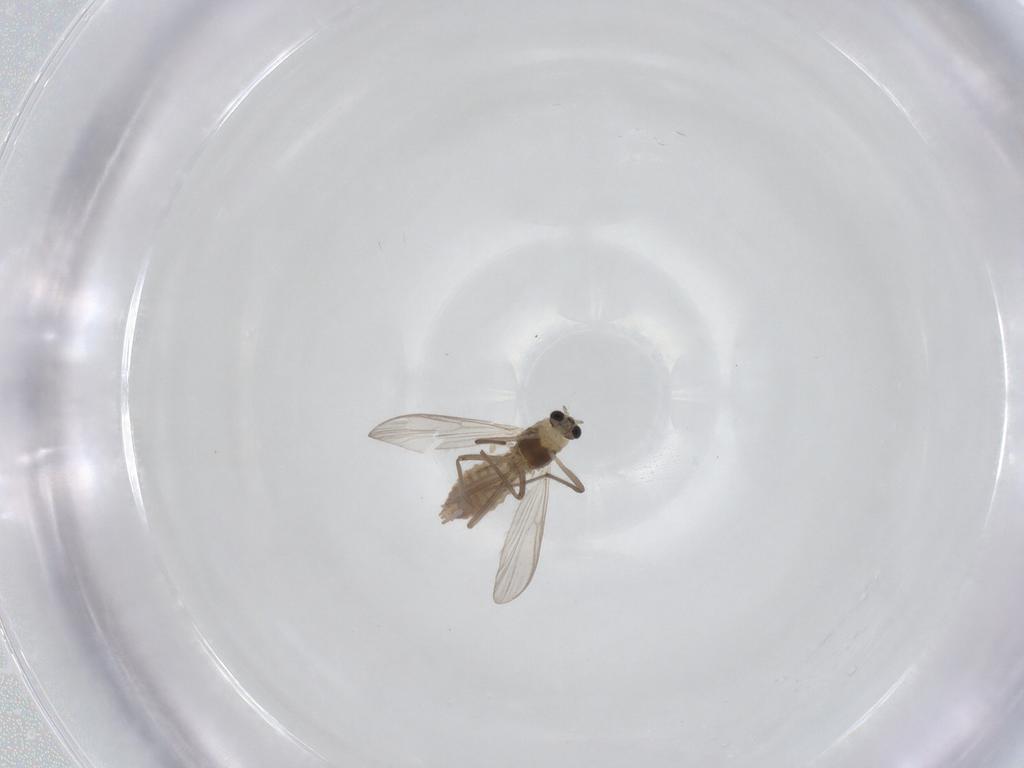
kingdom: Animalia
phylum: Arthropoda
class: Insecta
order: Diptera
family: Chironomidae
